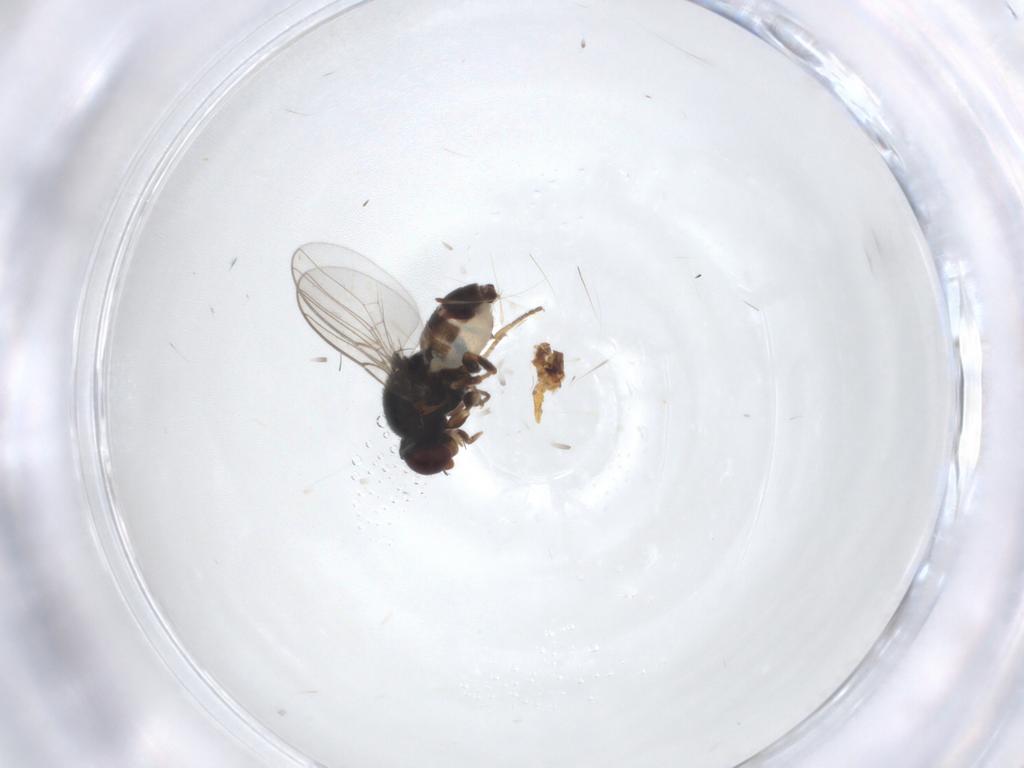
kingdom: Animalia
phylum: Arthropoda
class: Insecta
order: Diptera
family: Chloropidae
